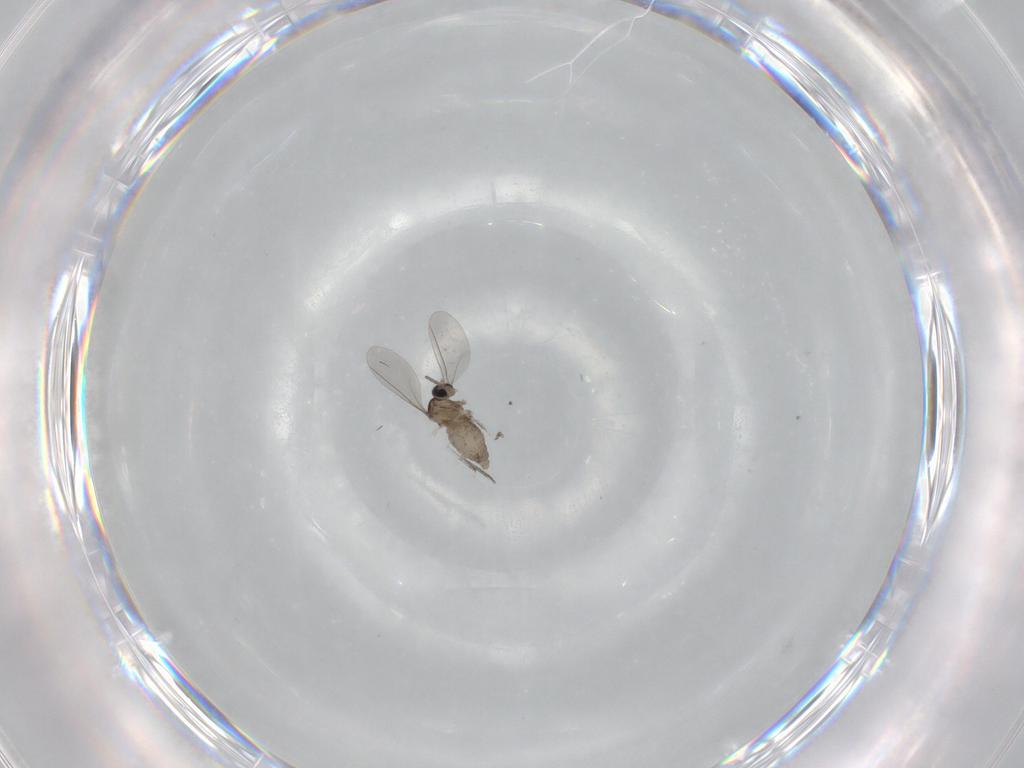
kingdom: Animalia
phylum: Arthropoda
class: Insecta
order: Diptera
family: Cecidomyiidae
